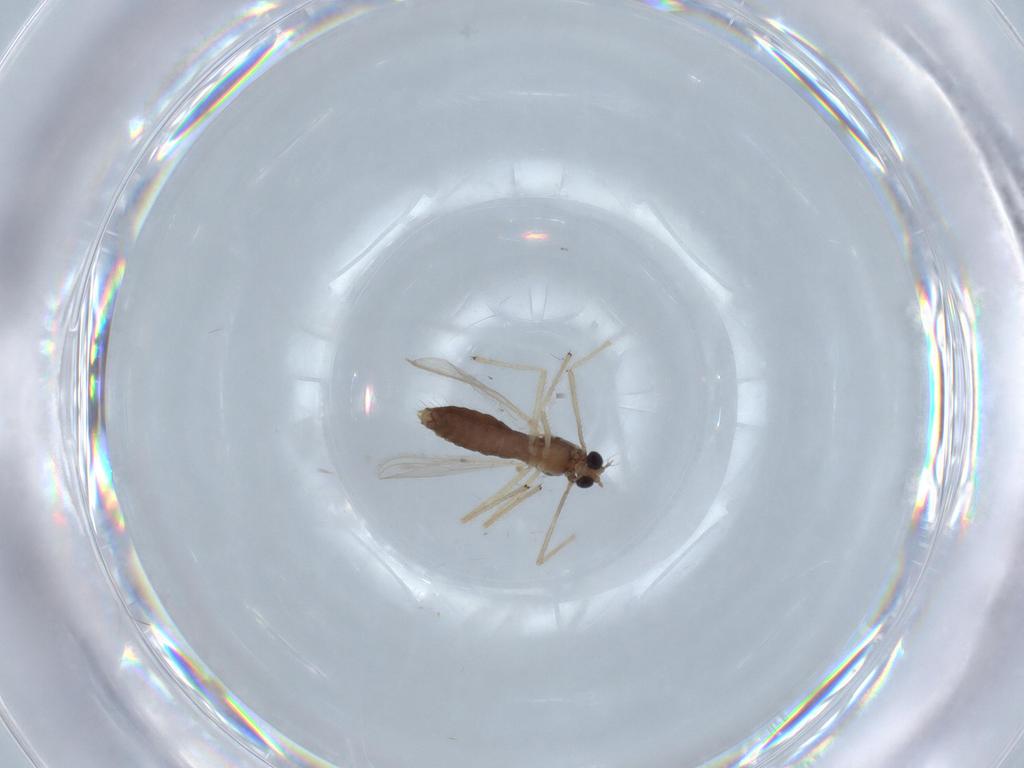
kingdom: Animalia
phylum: Arthropoda
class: Insecta
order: Diptera
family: Chironomidae
